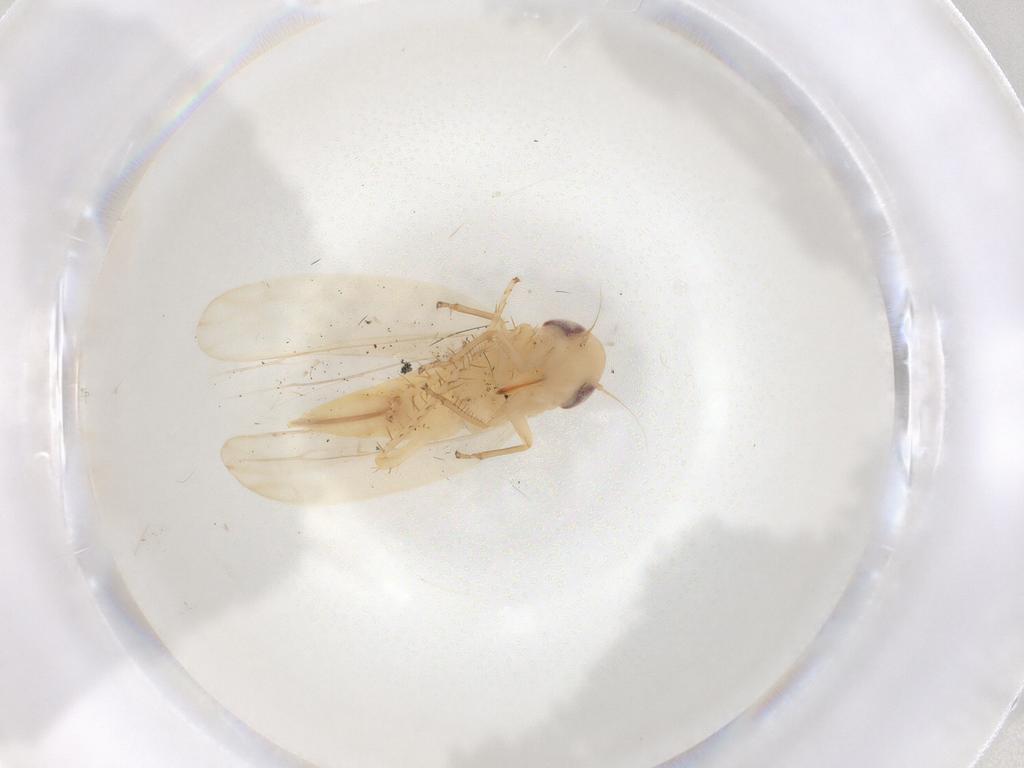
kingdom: Animalia
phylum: Arthropoda
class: Insecta
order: Hemiptera
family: Cicadellidae
